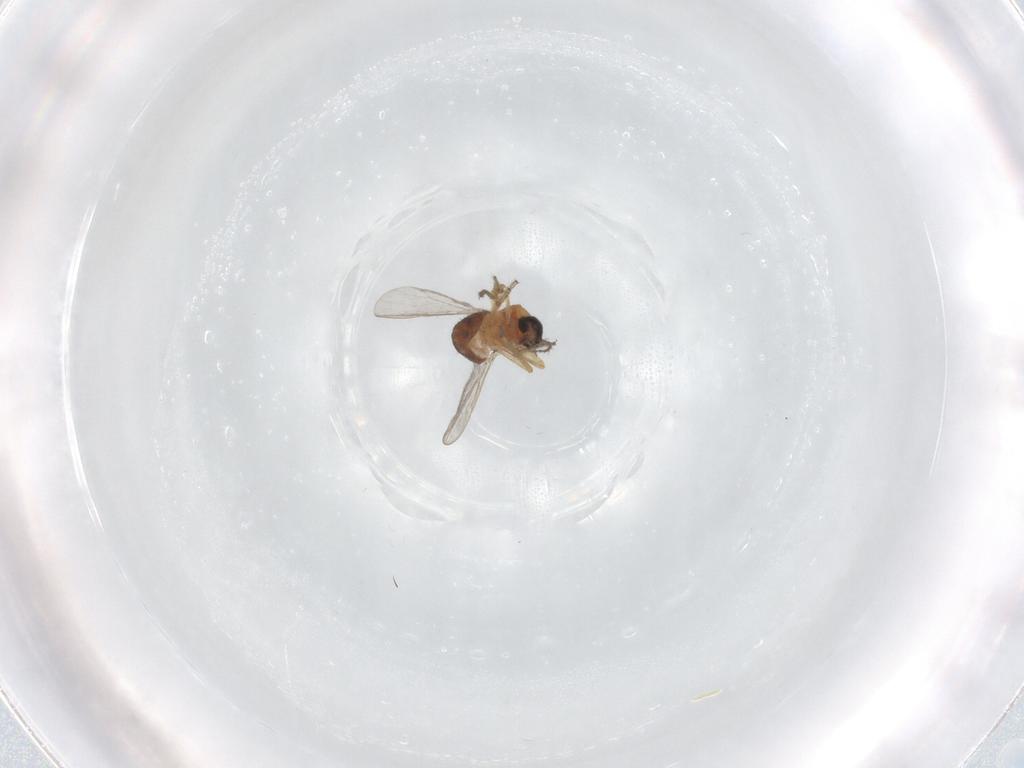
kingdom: Animalia
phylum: Arthropoda
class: Insecta
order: Diptera
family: Ceratopogonidae
